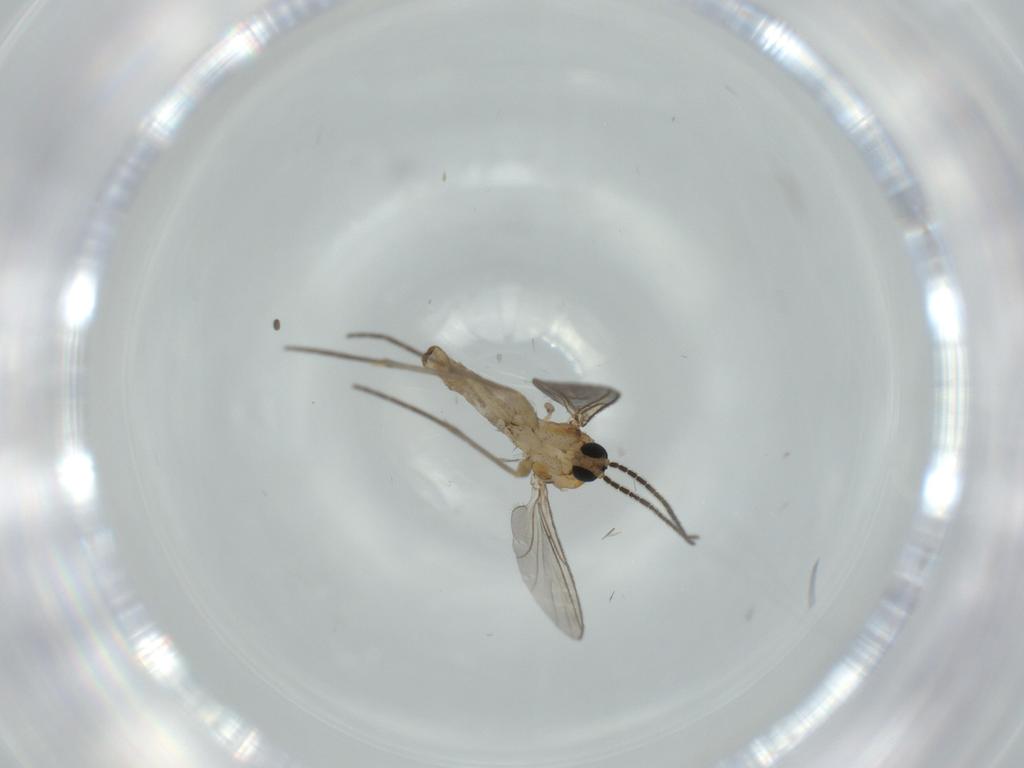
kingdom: Animalia
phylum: Arthropoda
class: Insecta
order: Diptera
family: Sciaridae
